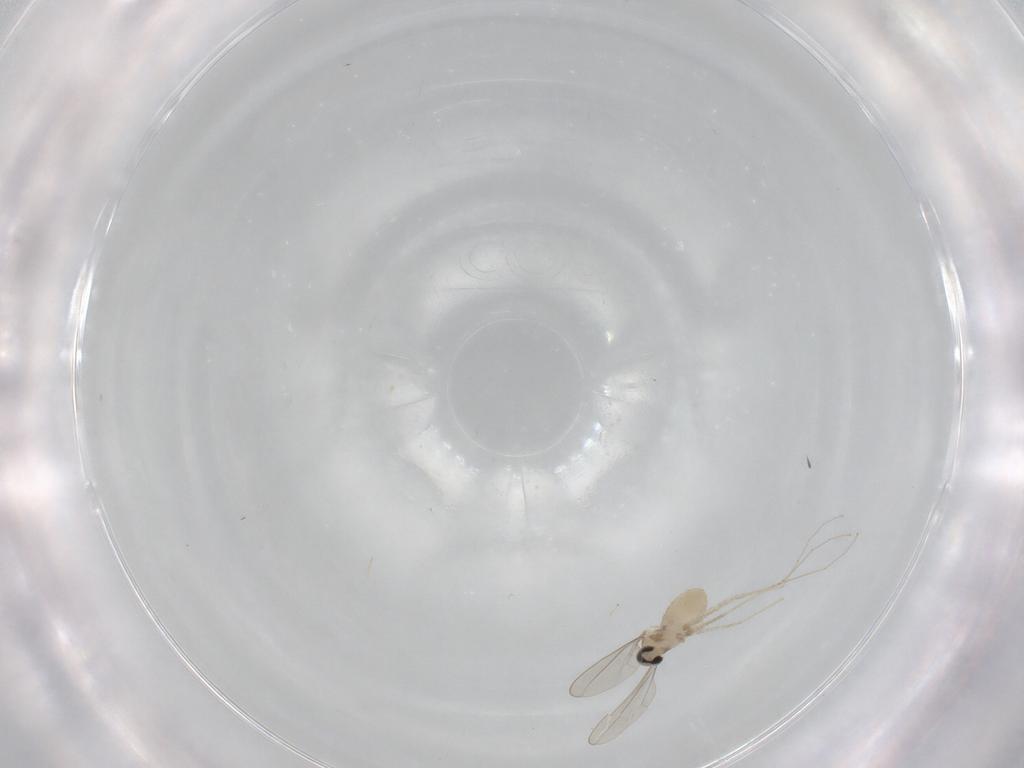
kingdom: Animalia
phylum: Arthropoda
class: Insecta
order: Diptera
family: Cecidomyiidae
